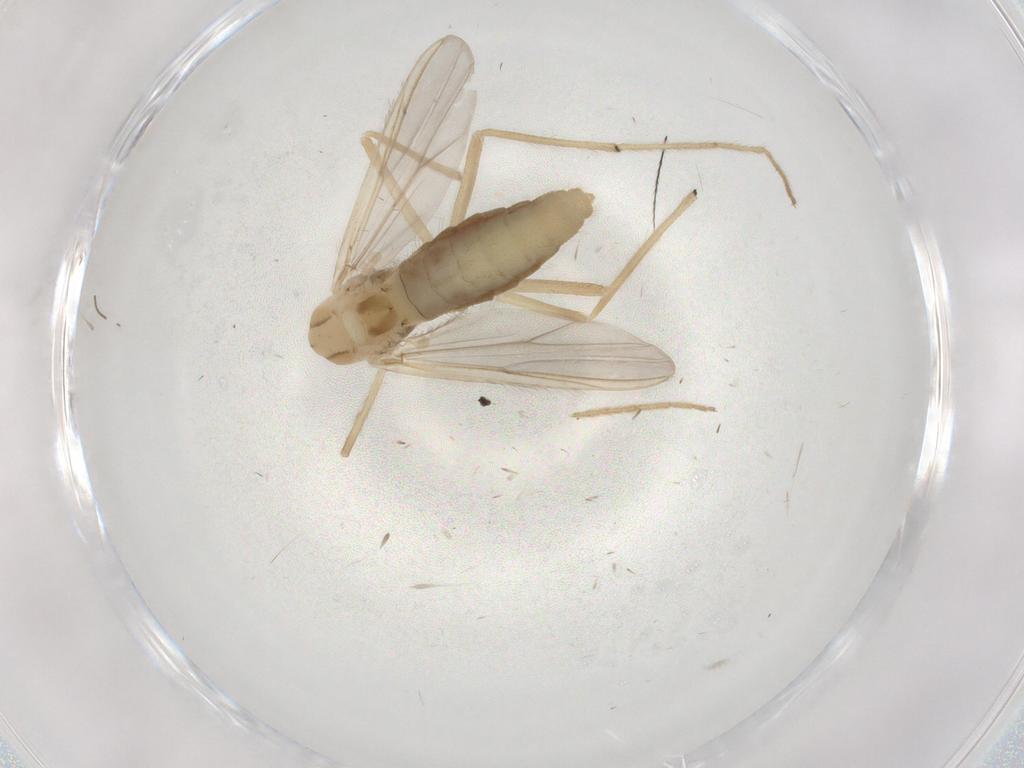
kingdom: Animalia
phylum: Arthropoda
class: Insecta
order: Diptera
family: Chironomidae
